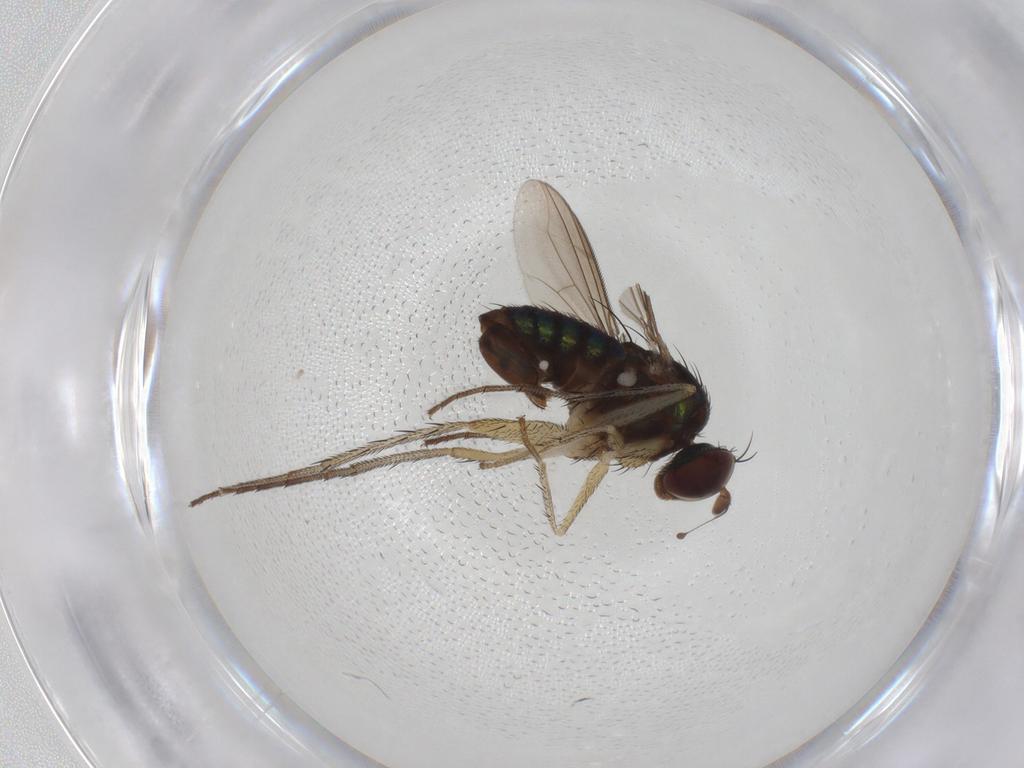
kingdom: Animalia
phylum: Arthropoda
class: Insecta
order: Diptera
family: Dolichopodidae
